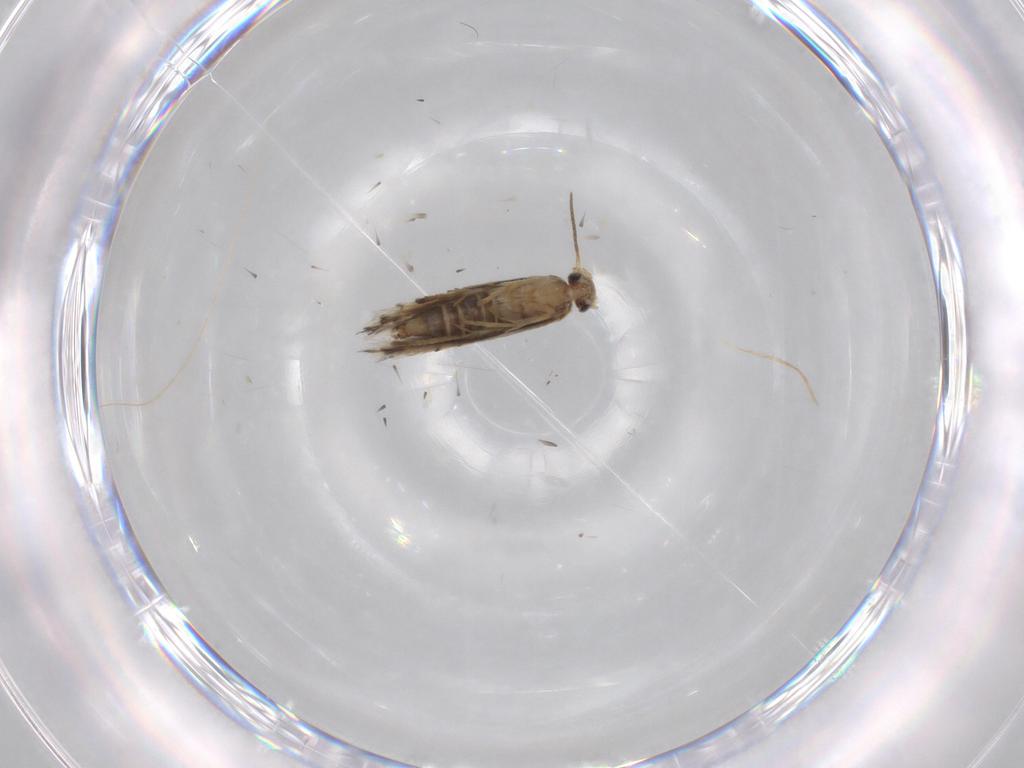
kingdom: Animalia
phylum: Arthropoda
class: Insecta
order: Lepidoptera
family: Heliozelidae
